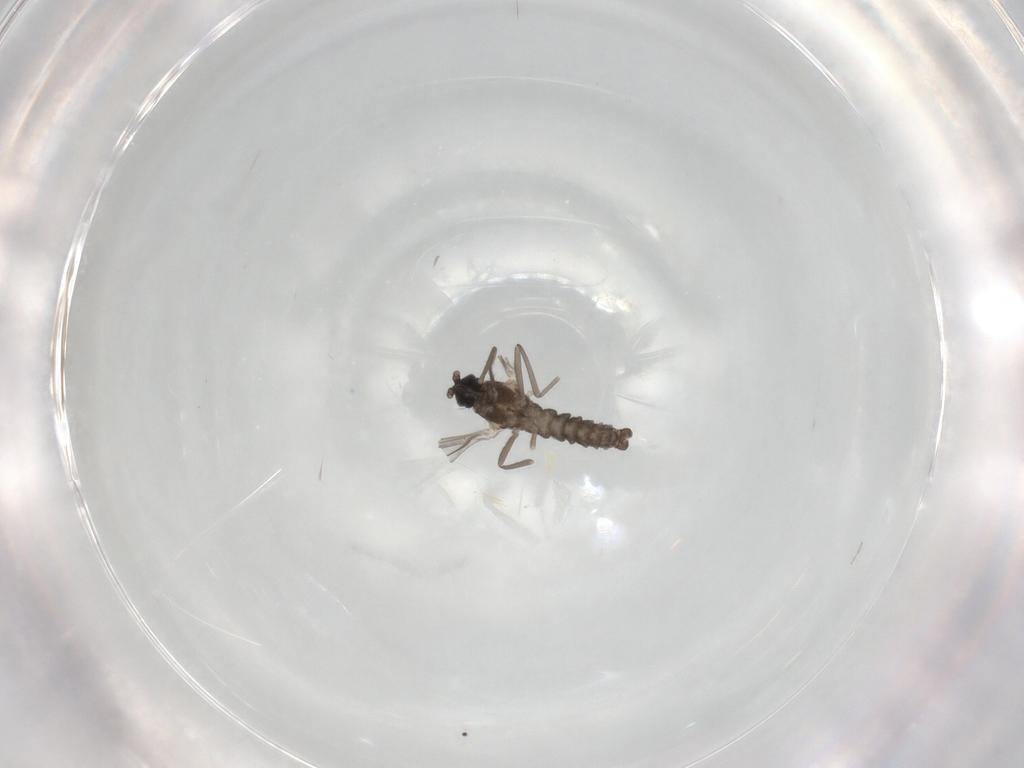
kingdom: Animalia
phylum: Arthropoda
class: Insecta
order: Diptera
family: Cecidomyiidae
